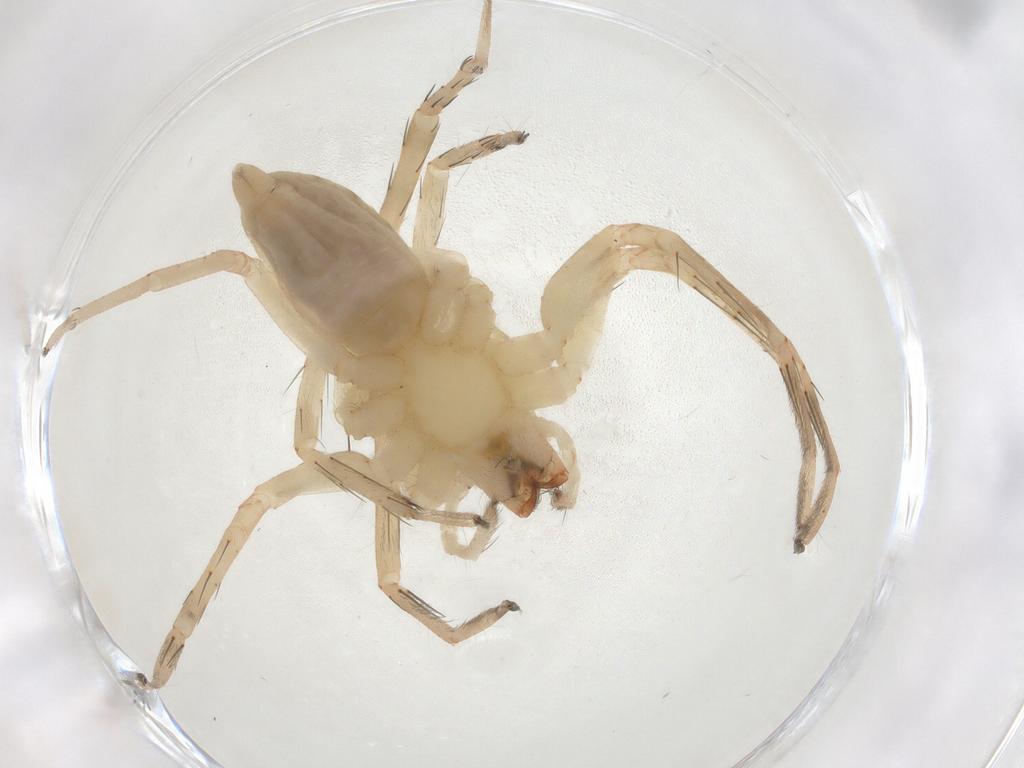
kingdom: Animalia
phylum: Arthropoda
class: Arachnida
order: Araneae
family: Anyphaenidae
